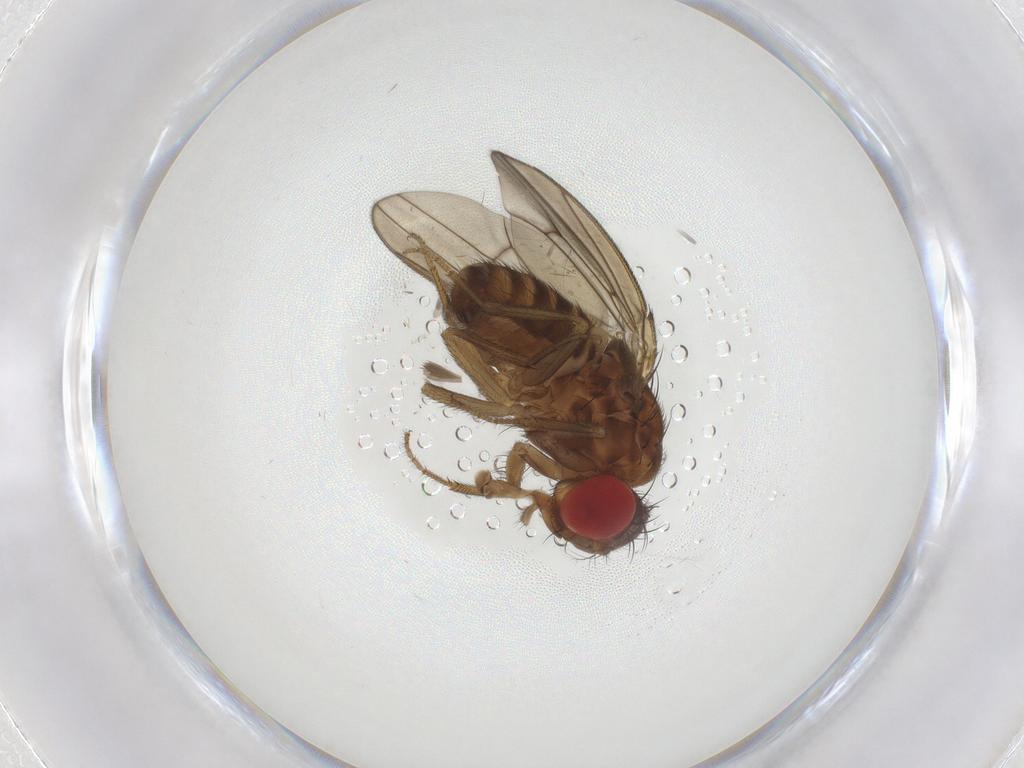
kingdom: Animalia
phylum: Arthropoda
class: Insecta
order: Diptera
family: Drosophilidae
